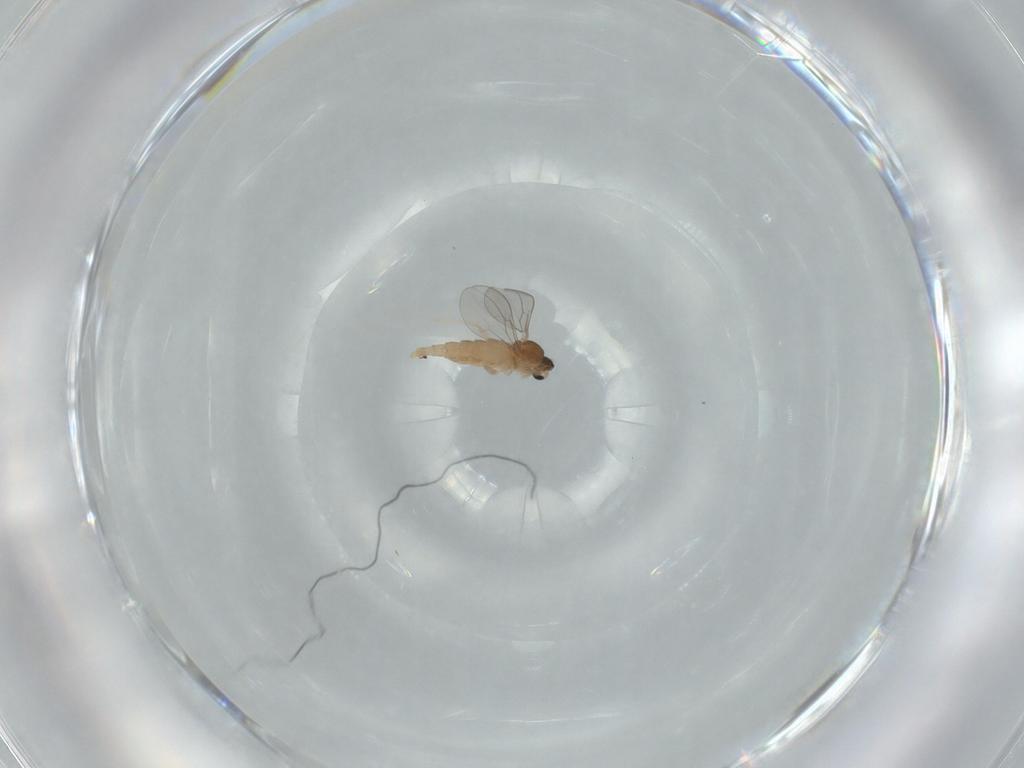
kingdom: Animalia
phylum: Arthropoda
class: Insecta
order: Diptera
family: Cecidomyiidae
